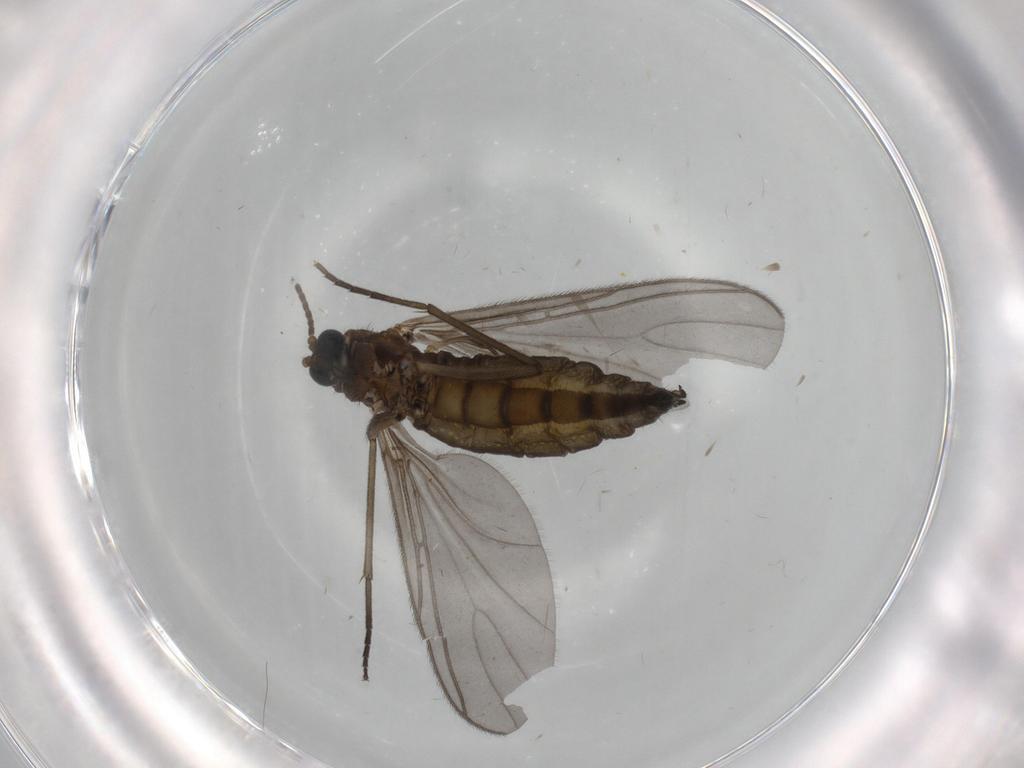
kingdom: Animalia
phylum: Arthropoda
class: Insecta
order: Diptera
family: Sciaridae
